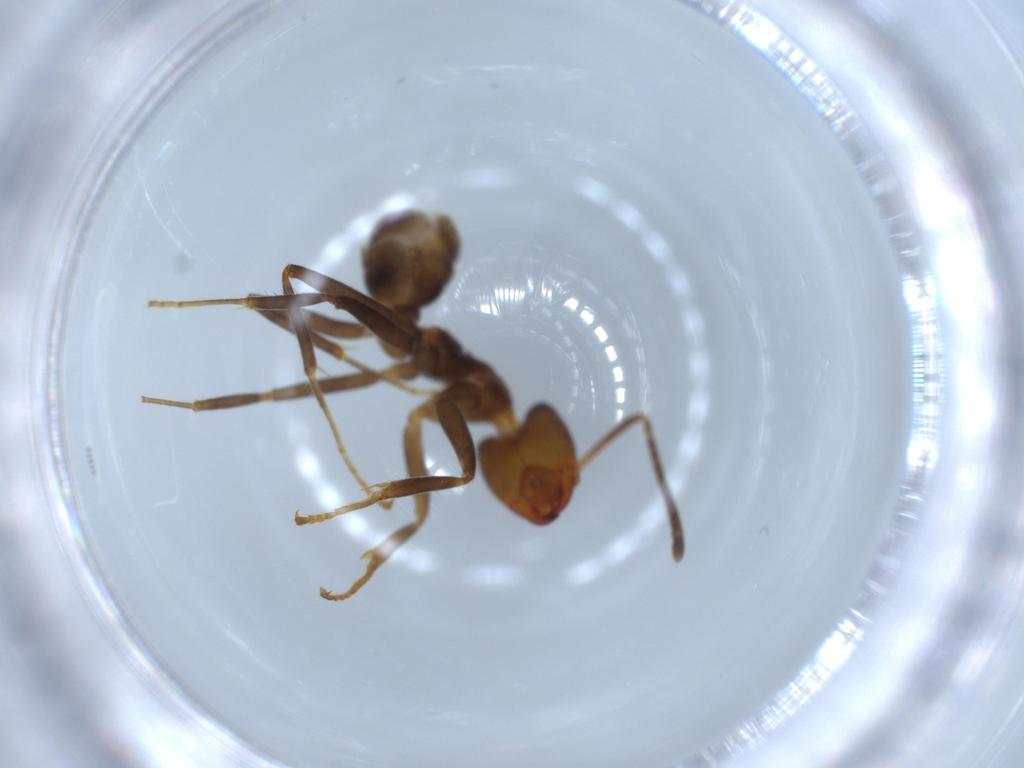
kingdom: Animalia
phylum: Arthropoda
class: Insecta
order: Hymenoptera
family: Formicidae
